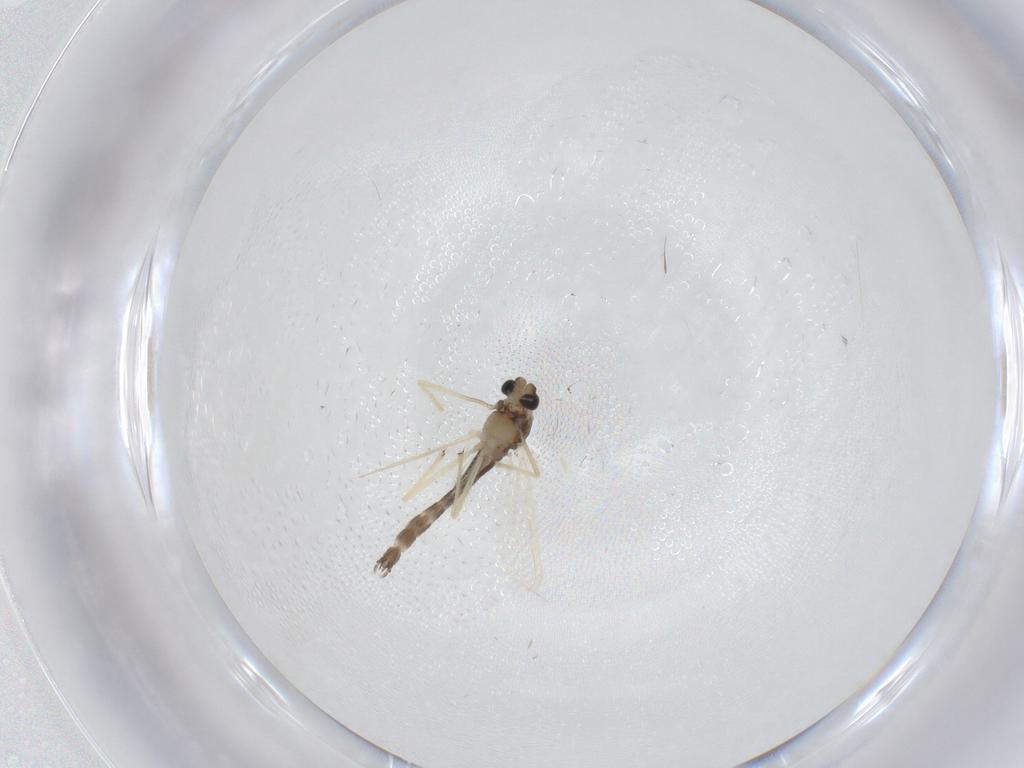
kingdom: Animalia
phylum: Arthropoda
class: Insecta
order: Diptera
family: Chironomidae
